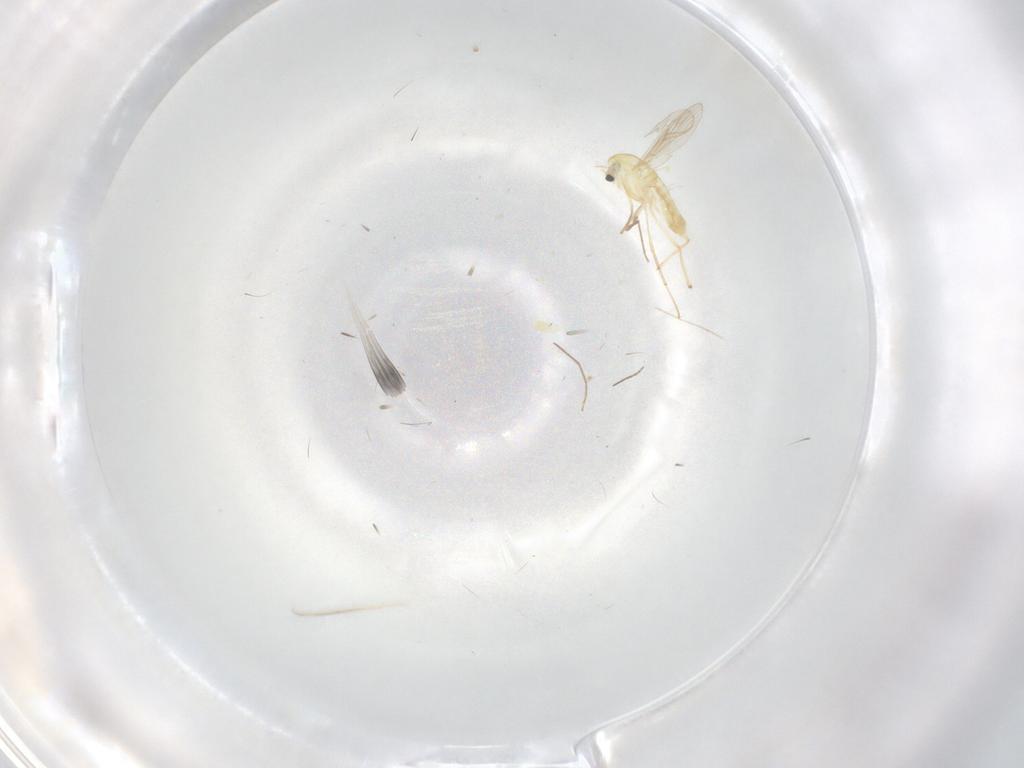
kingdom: Animalia
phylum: Arthropoda
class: Insecta
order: Diptera
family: Chironomidae
